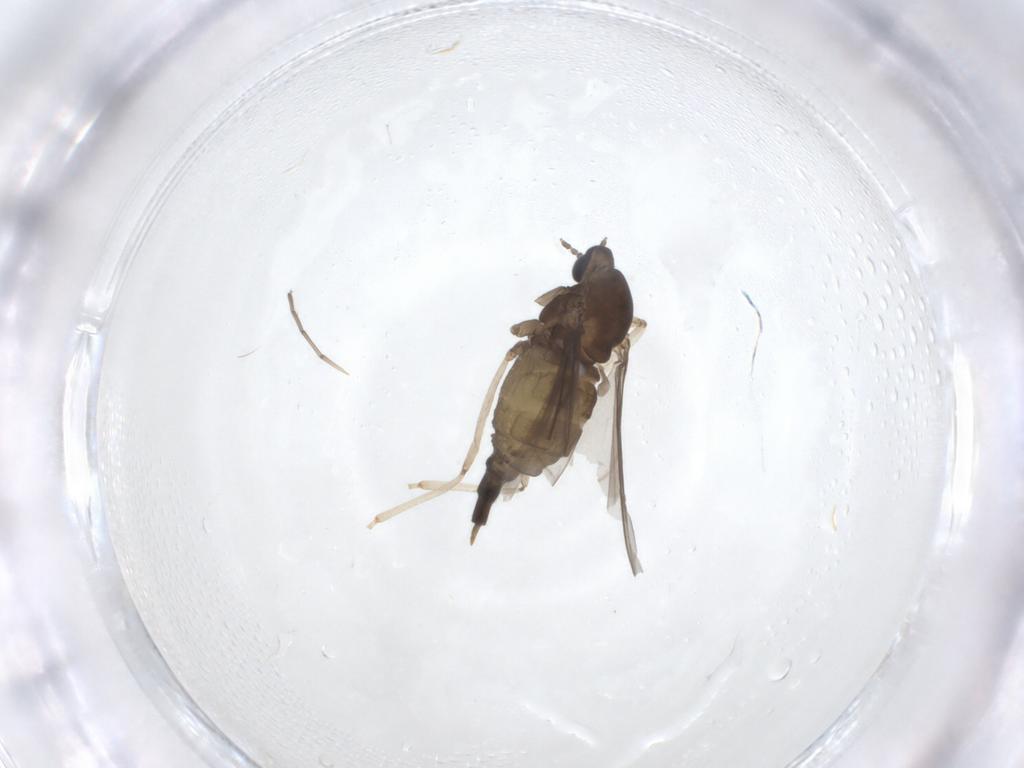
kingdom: Animalia
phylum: Arthropoda
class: Insecta
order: Diptera
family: Cecidomyiidae
